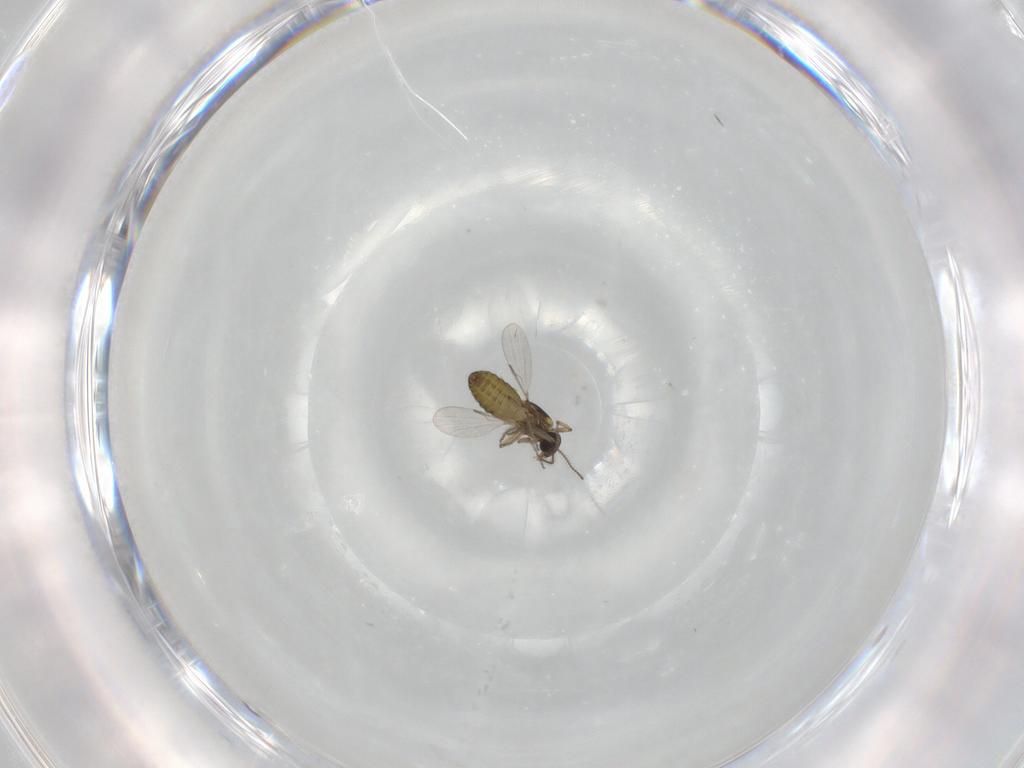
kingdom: Animalia
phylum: Arthropoda
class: Insecta
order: Diptera
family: Ceratopogonidae
